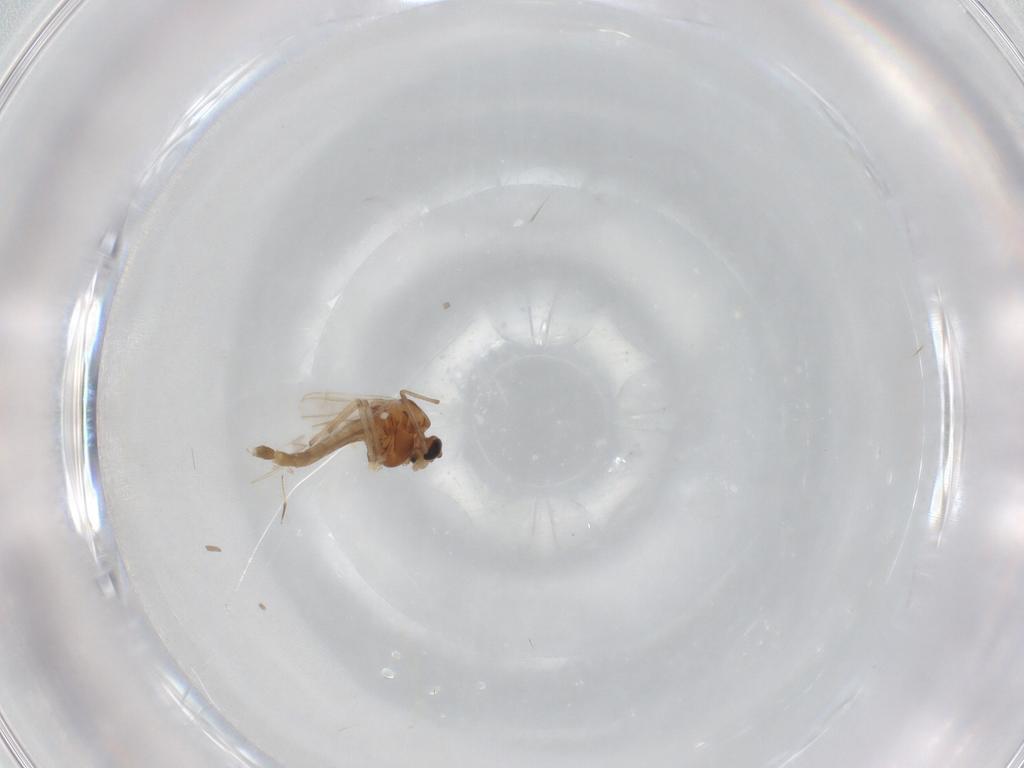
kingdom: Animalia
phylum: Arthropoda
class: Insecta
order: Diptera
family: Chironomidae
